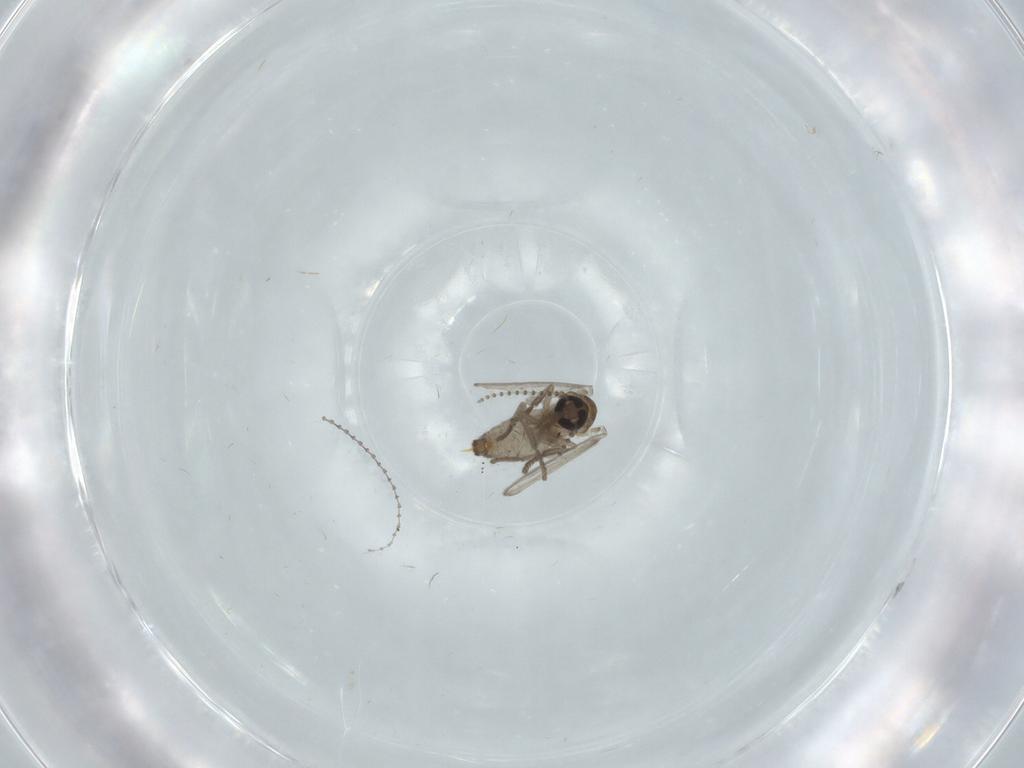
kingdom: Animalia
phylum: Arthropoda
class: Insecta
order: Diptera
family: Psychodidae
